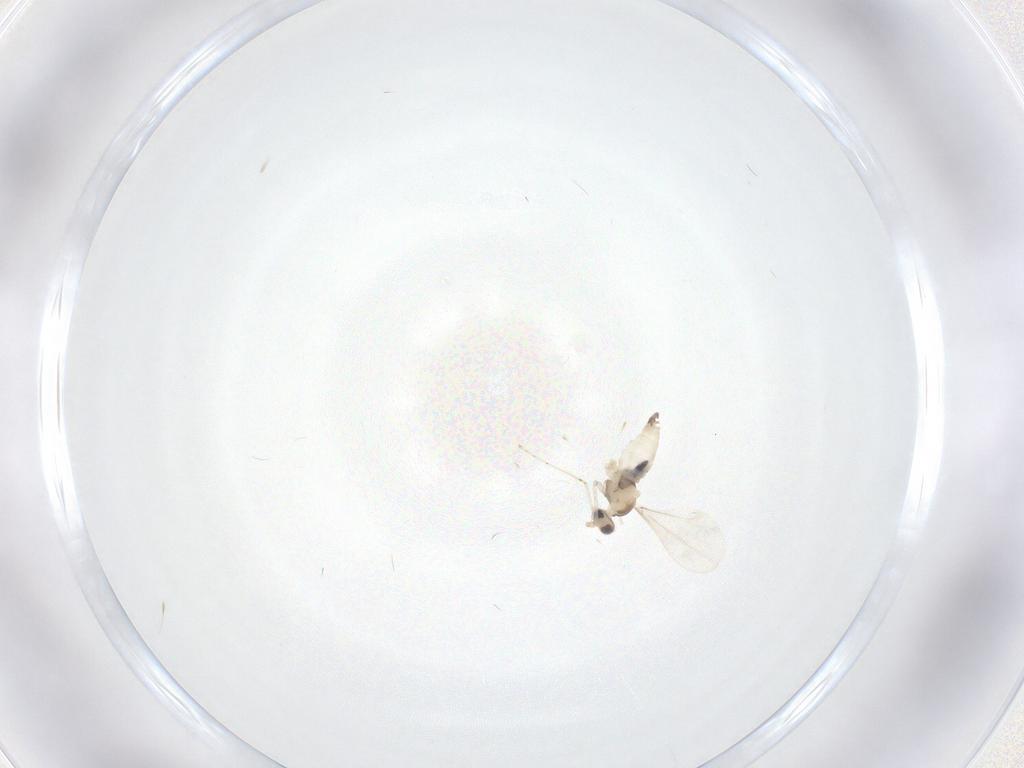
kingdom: Animalia
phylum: Arthropoda
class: Insecta
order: Diptera
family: Cecidomyiidae
